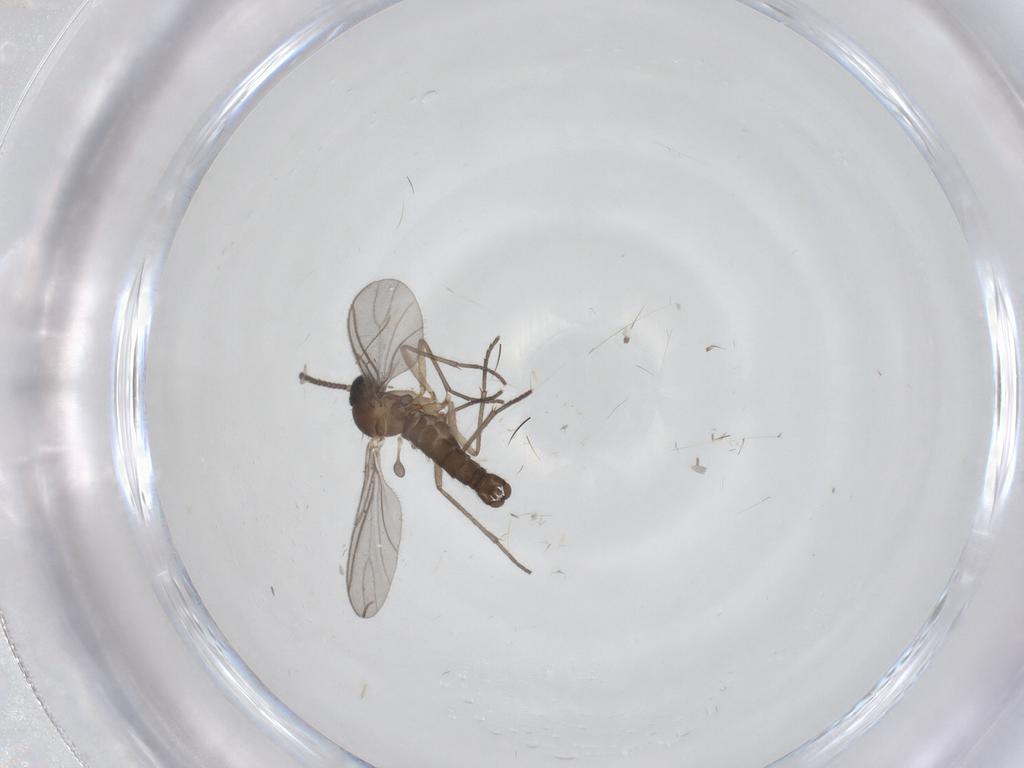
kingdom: Animalia
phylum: Arthropoda
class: Insecta
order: Diptera
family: Sciaridae
